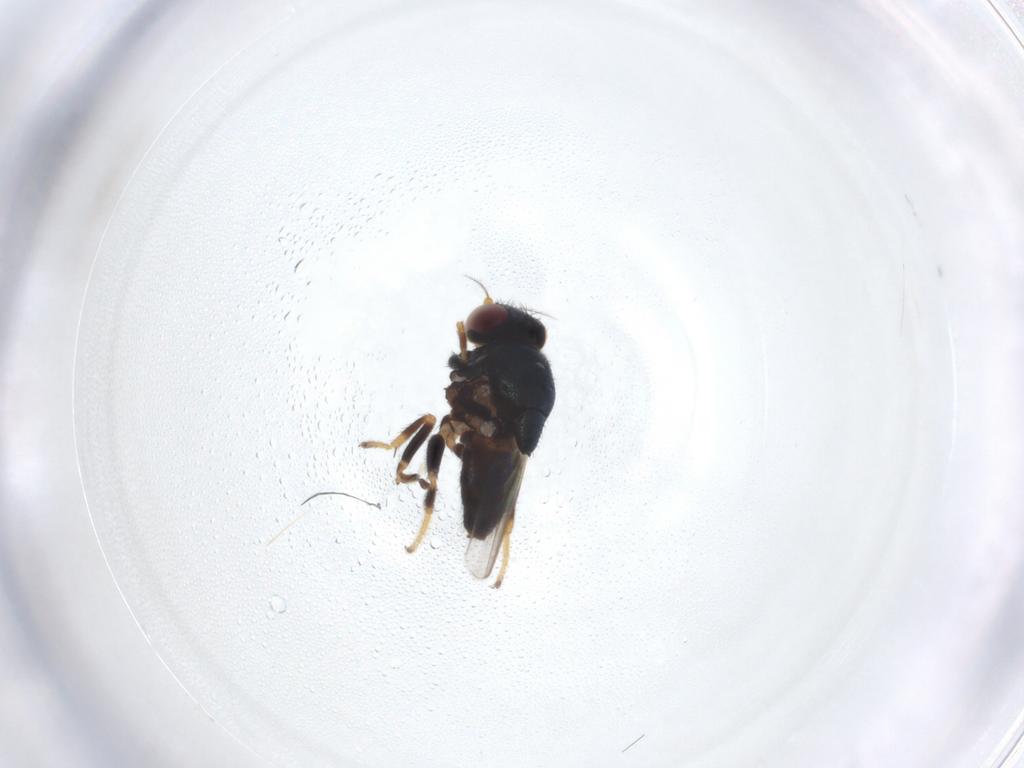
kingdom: Animalia
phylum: Arthropoda
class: Insecta
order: Diptera
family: Chloropidae
